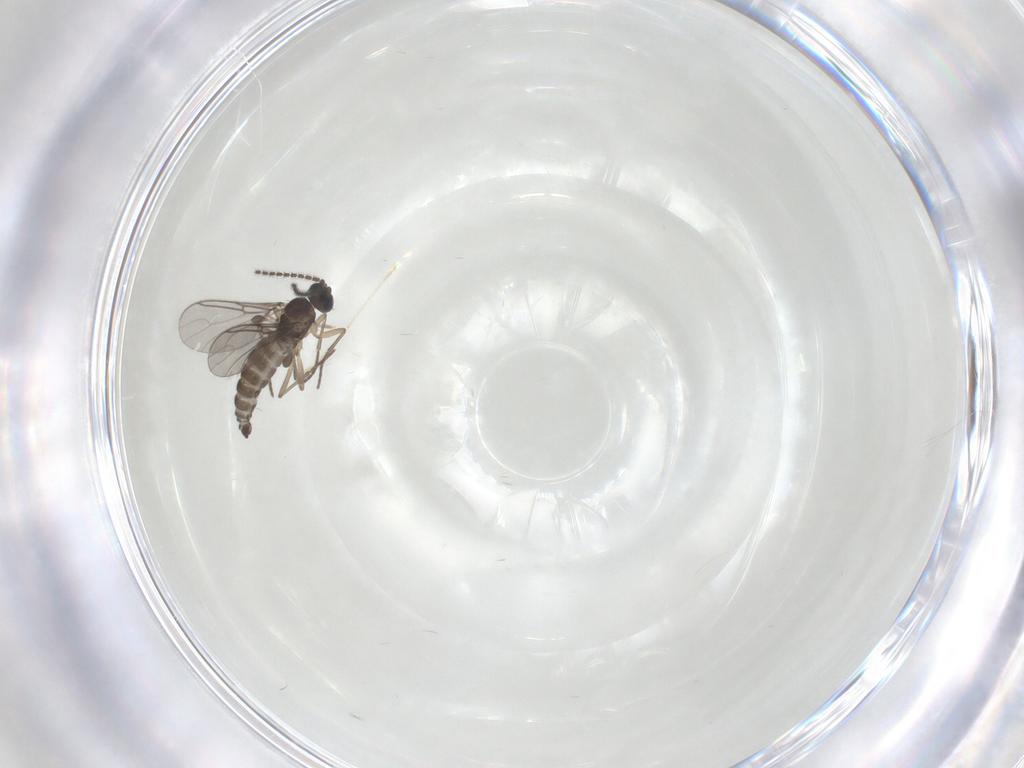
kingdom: Animalia
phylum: Arthropoda
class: Insecta
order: Diptera
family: Sciaridae
